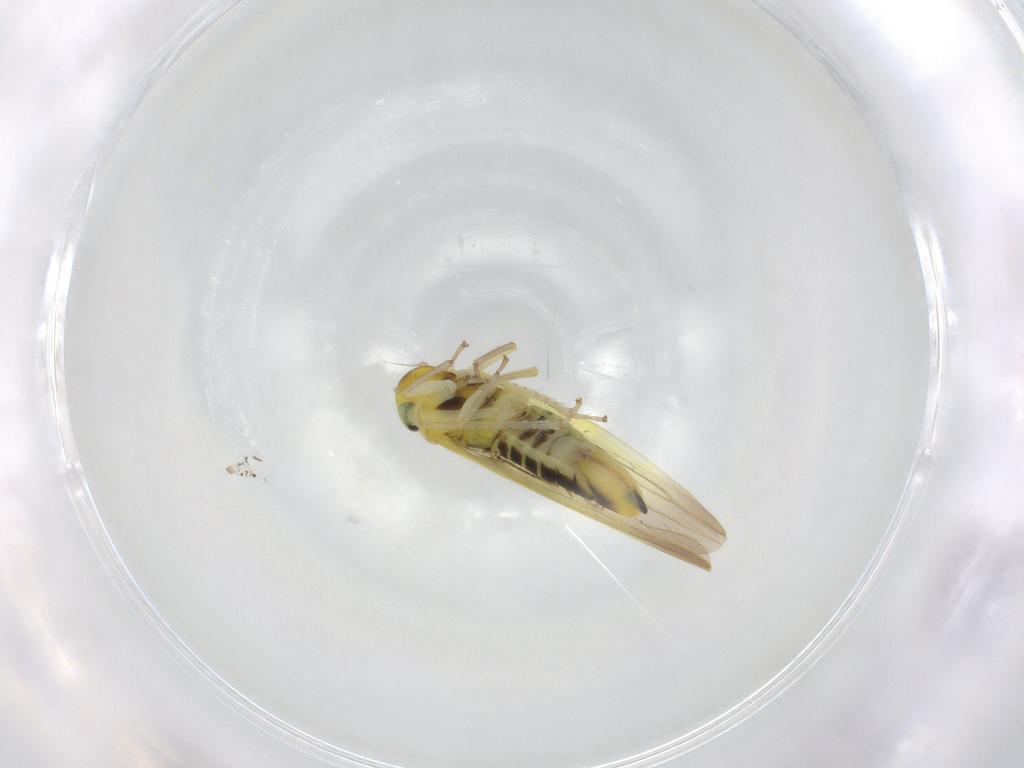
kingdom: Animalia
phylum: Arthropoda
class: Insecta
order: Hemiptera
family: Cicadellidae
